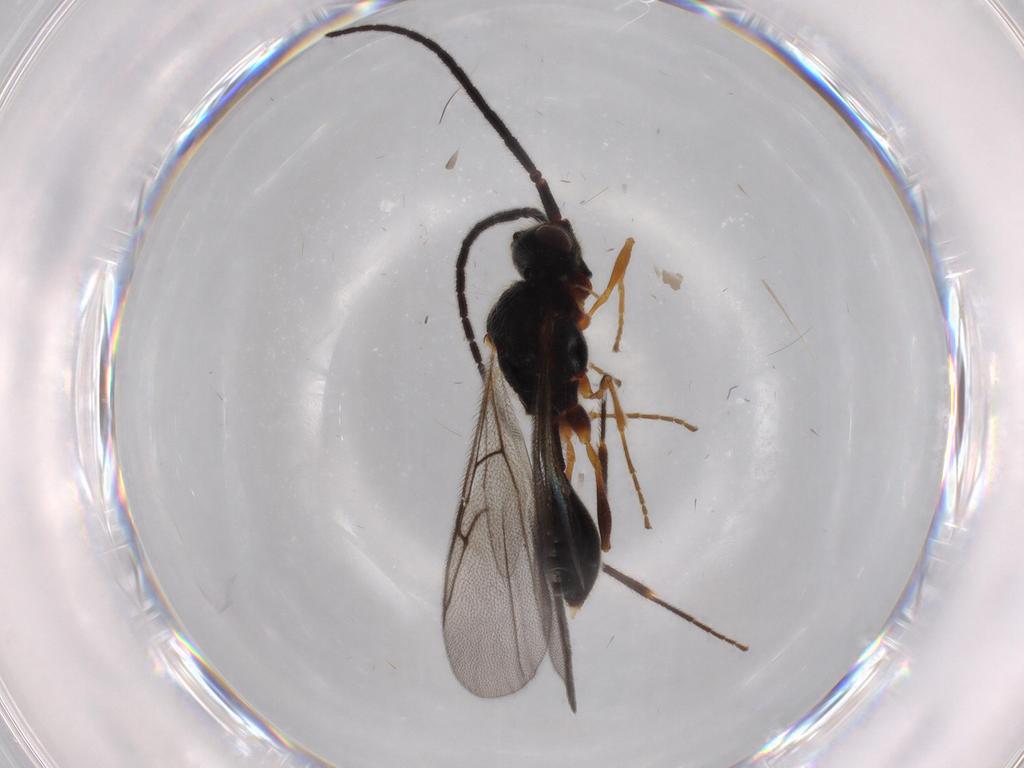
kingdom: Animalia
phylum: Arthropoda
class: Insecta
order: Hymenoptera
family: Diapriidae
